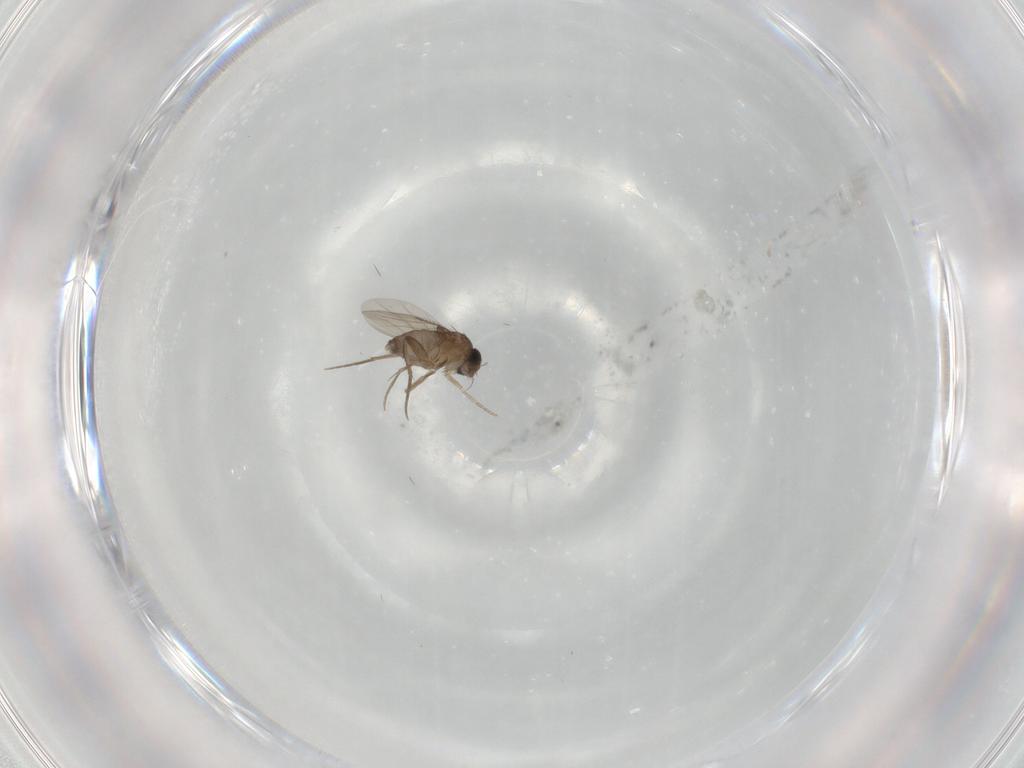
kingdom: Animalia
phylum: Arthropoda
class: Insecta
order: Diptera
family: Phoridae
